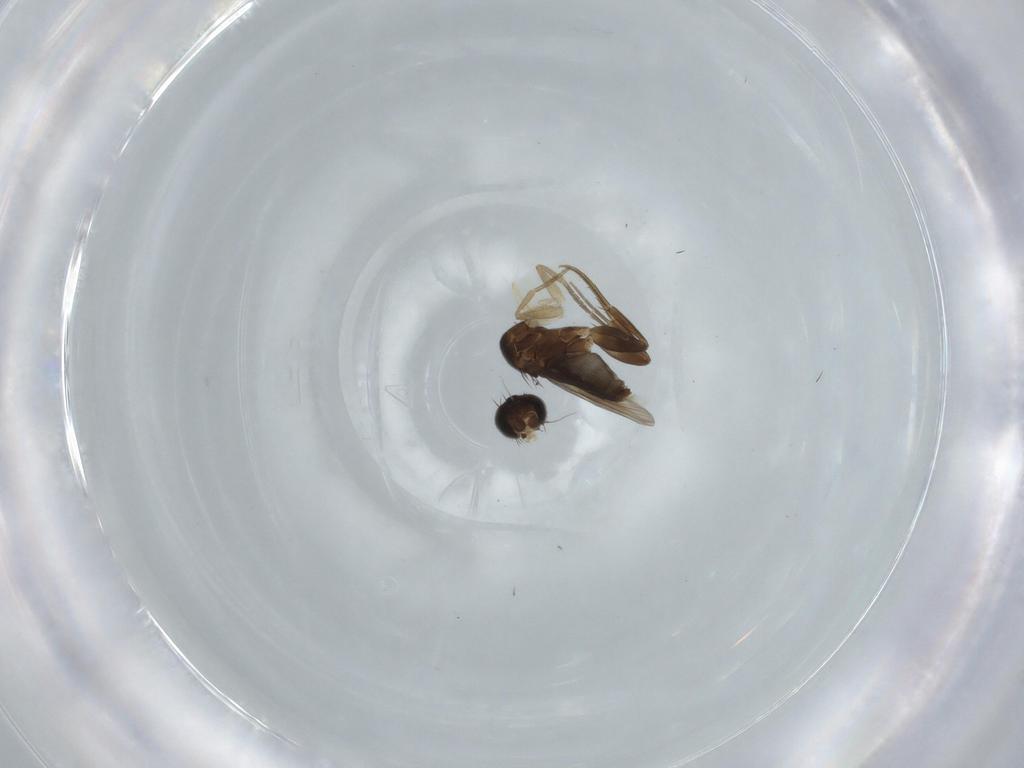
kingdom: Animalia
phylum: Arthropoda
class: Insecta
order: Diptera
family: Phoridae
